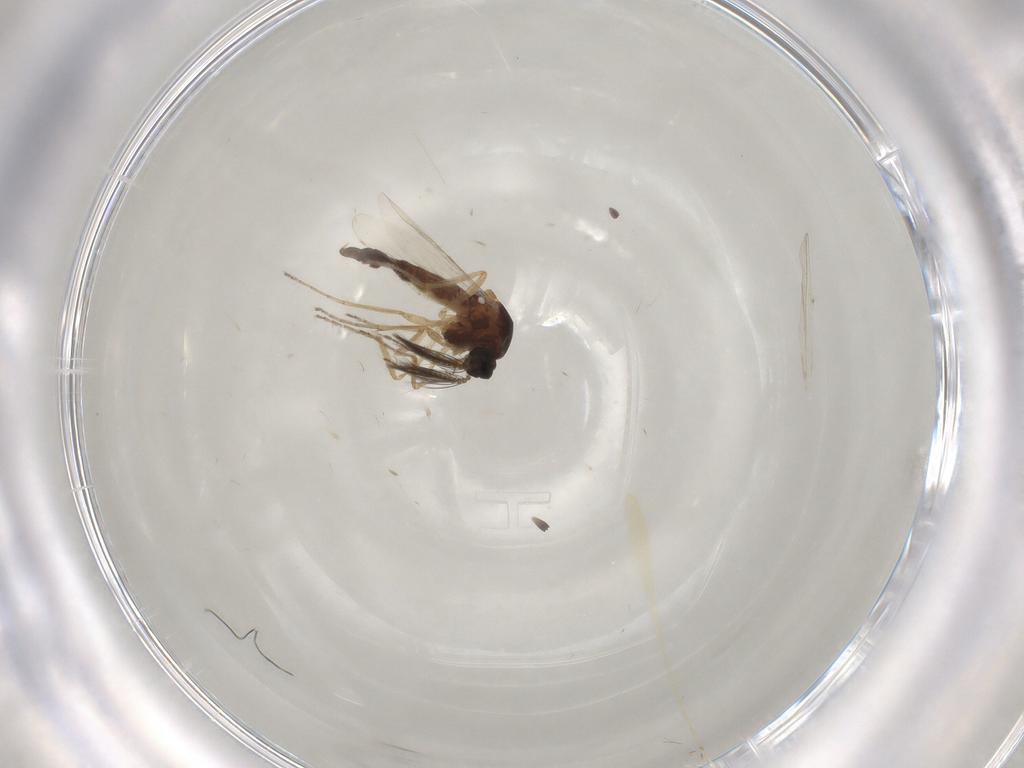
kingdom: Animalia
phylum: Arthropoda
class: Insecta
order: Diptera
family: Ceratopogonidae
